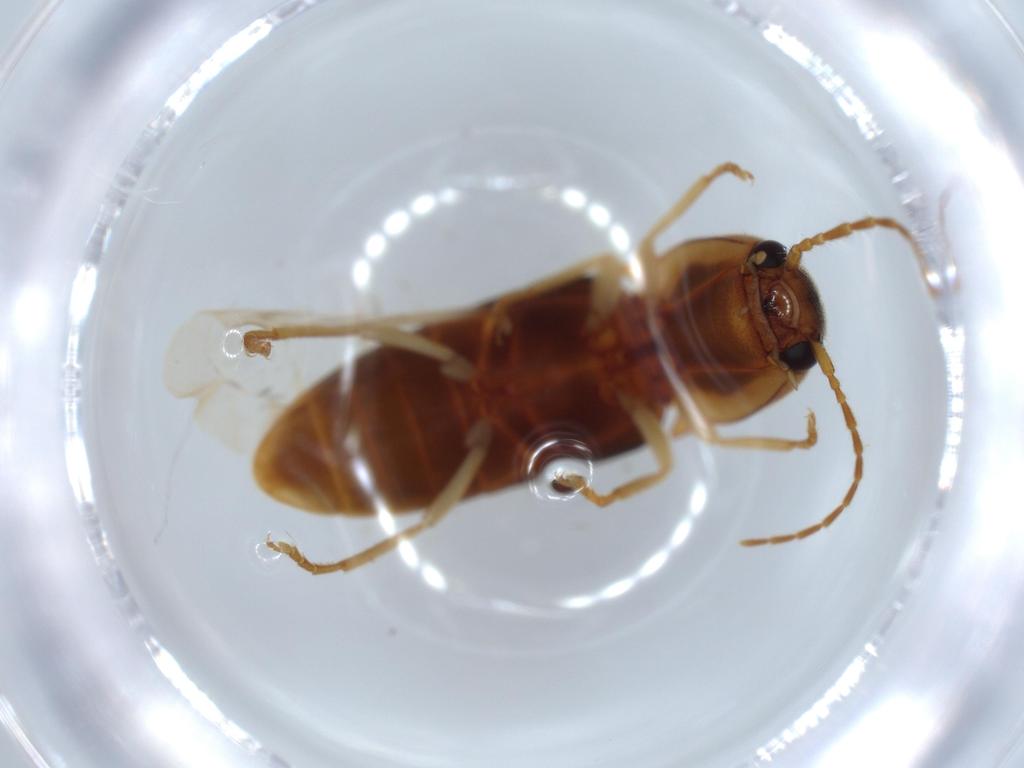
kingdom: Animalia
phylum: Arthropoda
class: Insecta
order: Coleoptera
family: Elateridae
